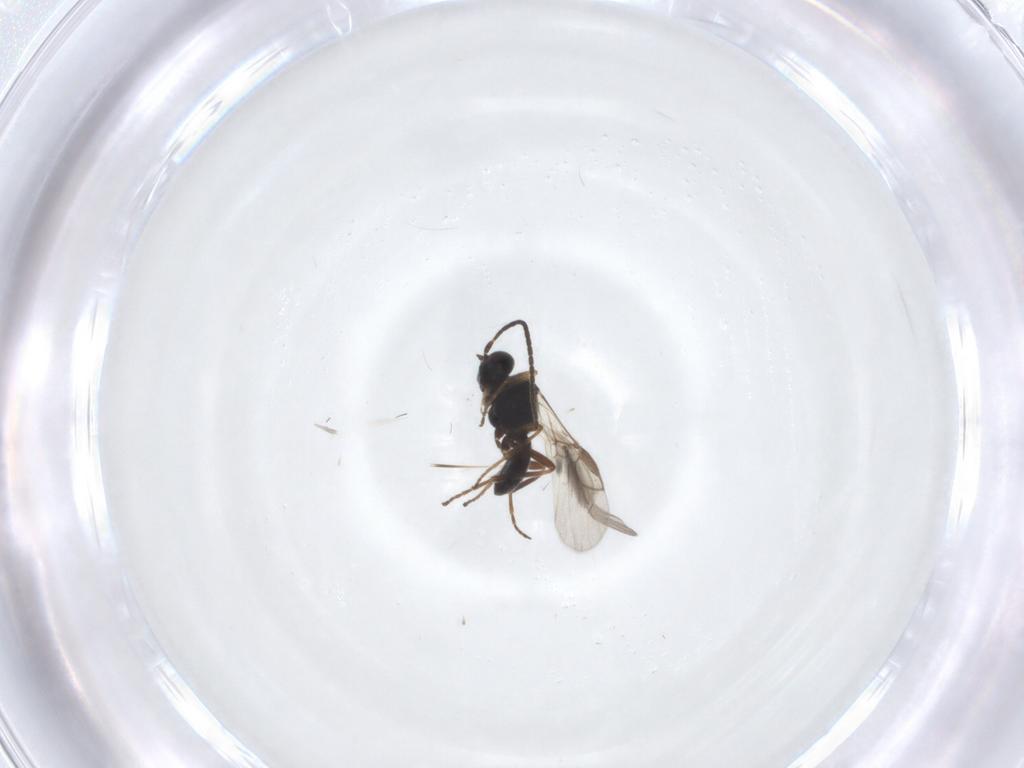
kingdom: Animalia
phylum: Arthropoda
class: Insecta
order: Hymenoptera
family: Braconidae
